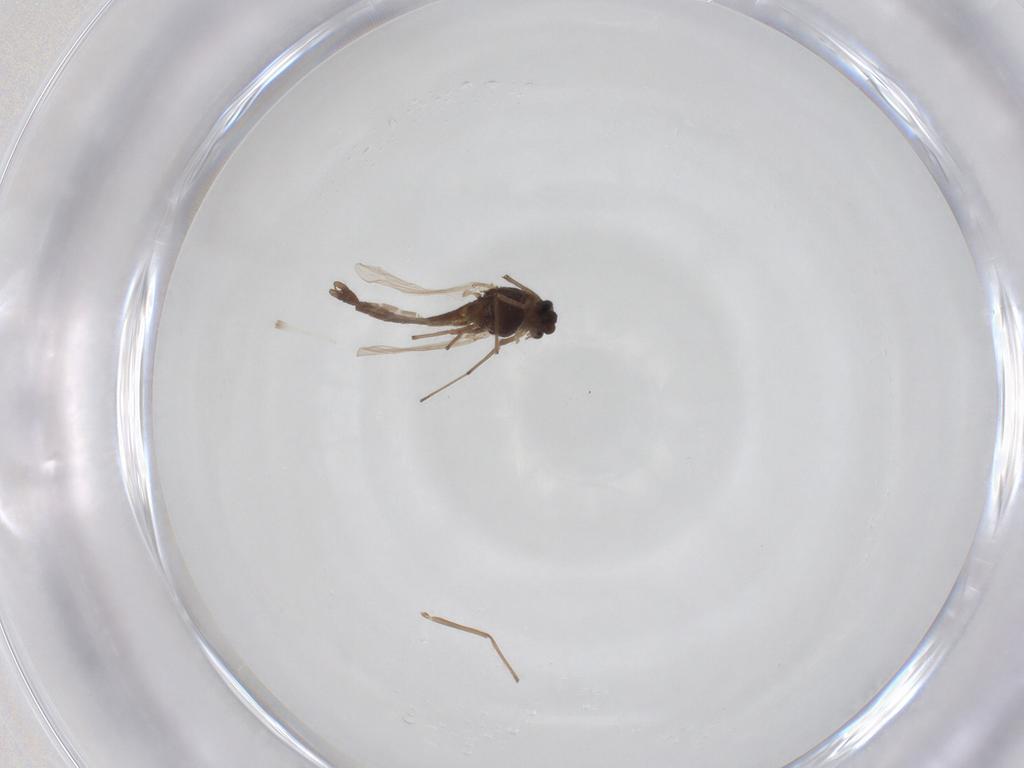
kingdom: Animalia
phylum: Arthropoda
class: Insecta
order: Diptera
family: Chironomidae
